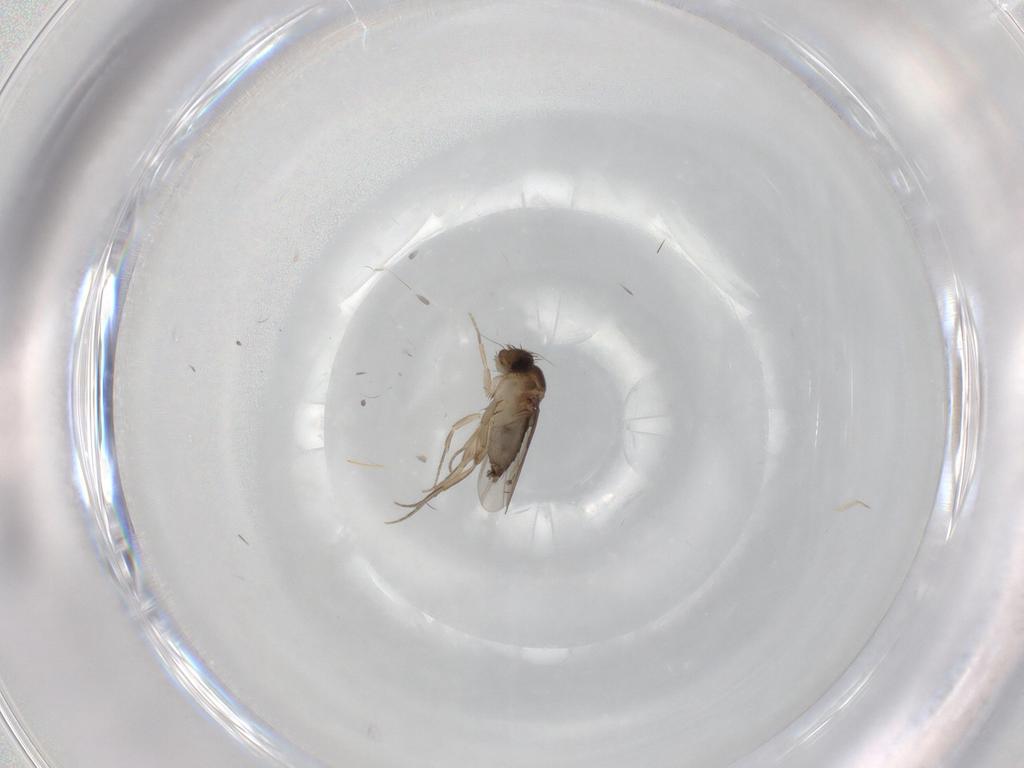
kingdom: Animalia
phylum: Arthropoda
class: Insecta
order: Diptera
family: Phoridae
